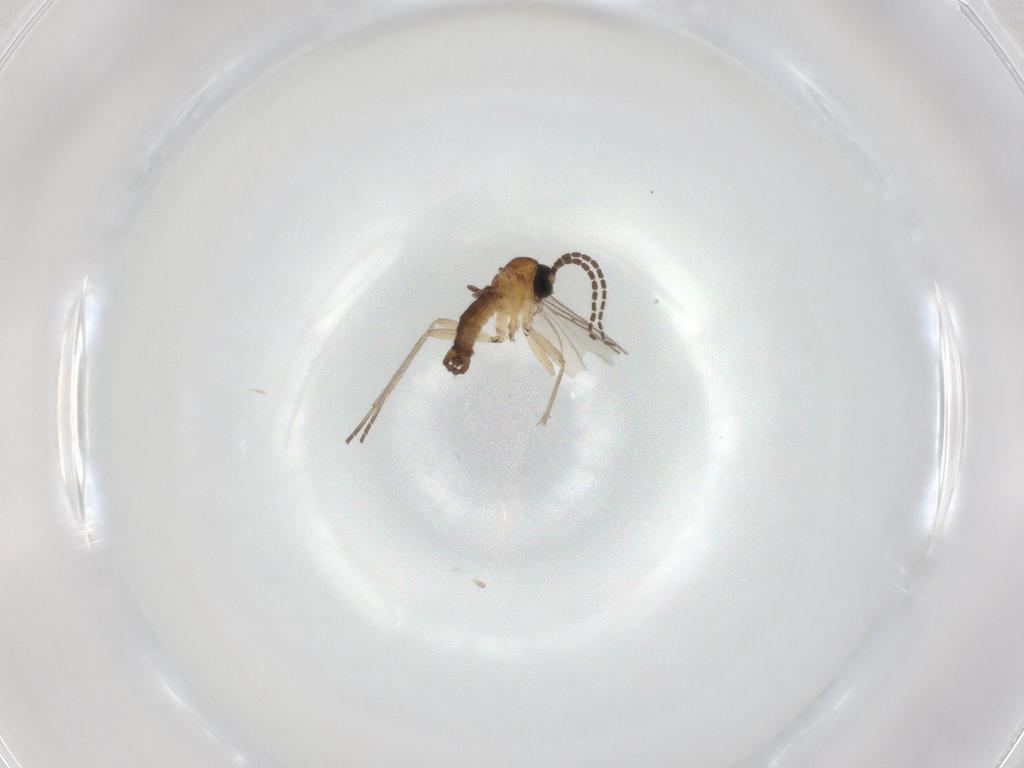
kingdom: Animalia
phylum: Arthropoda
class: Insecta
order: Diptera
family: Sciaridae
